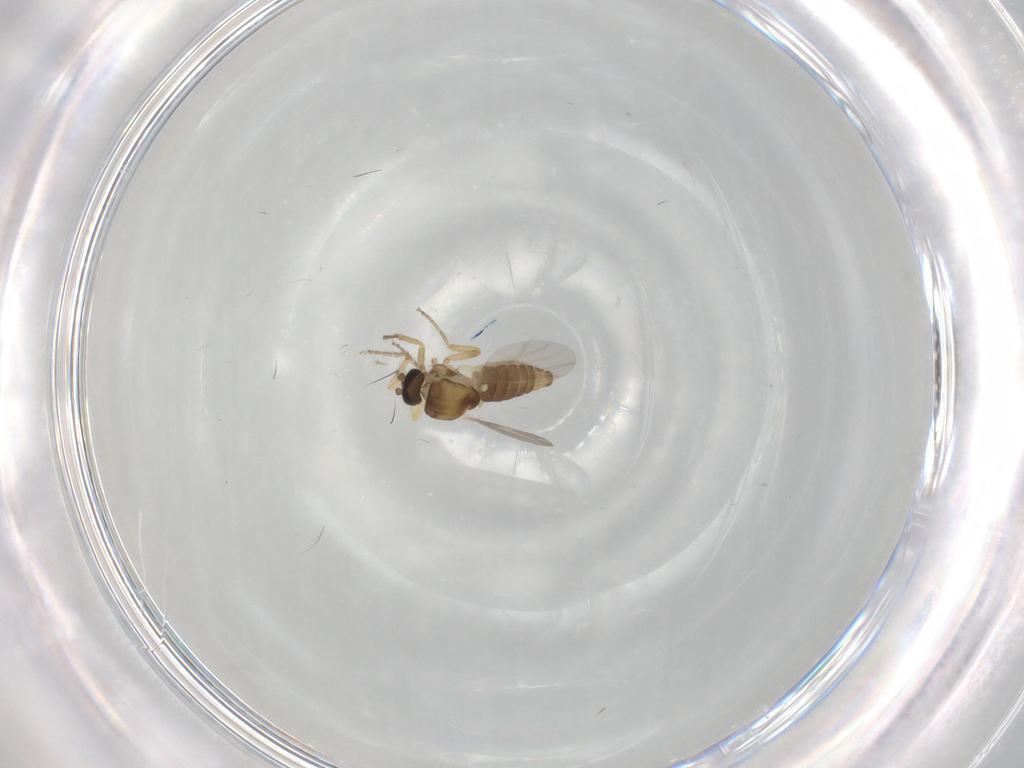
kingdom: Animalia
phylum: Arthropoda
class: Insecta
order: Diptera
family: Ceratopogonidae
